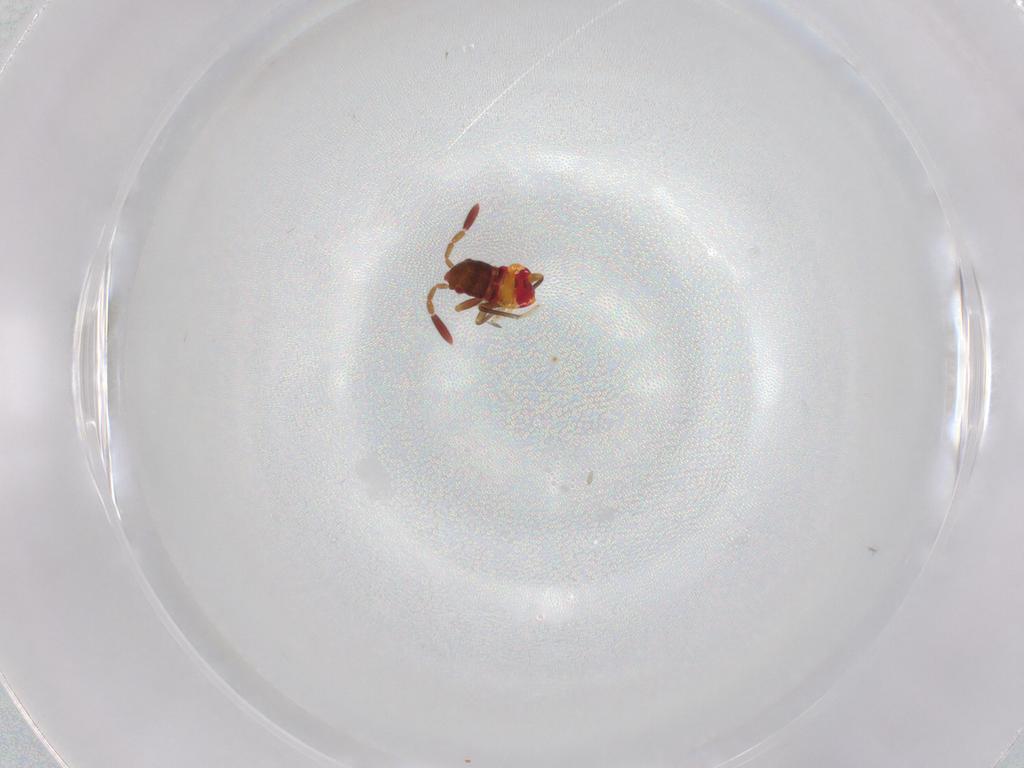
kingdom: Animalia
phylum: Arthropoda
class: Insecta
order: Hemiptera
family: Rhyparochromidae
